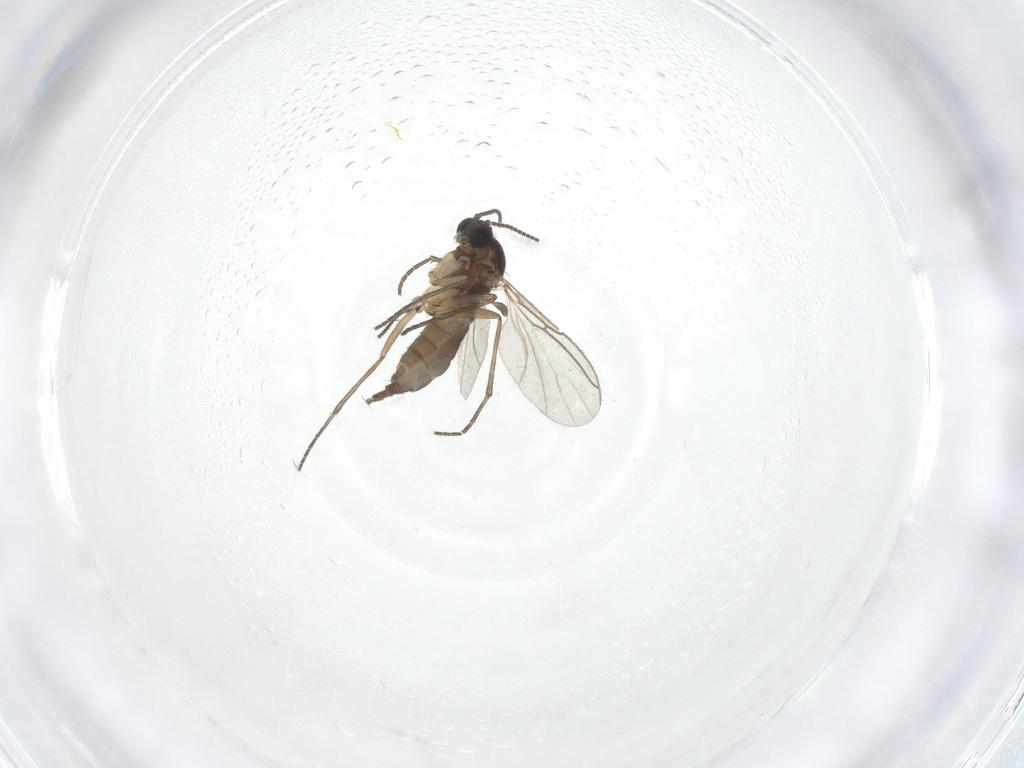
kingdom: Animalia
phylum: Arthropoda
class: Insecta
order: Diptera
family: Sciaridae
